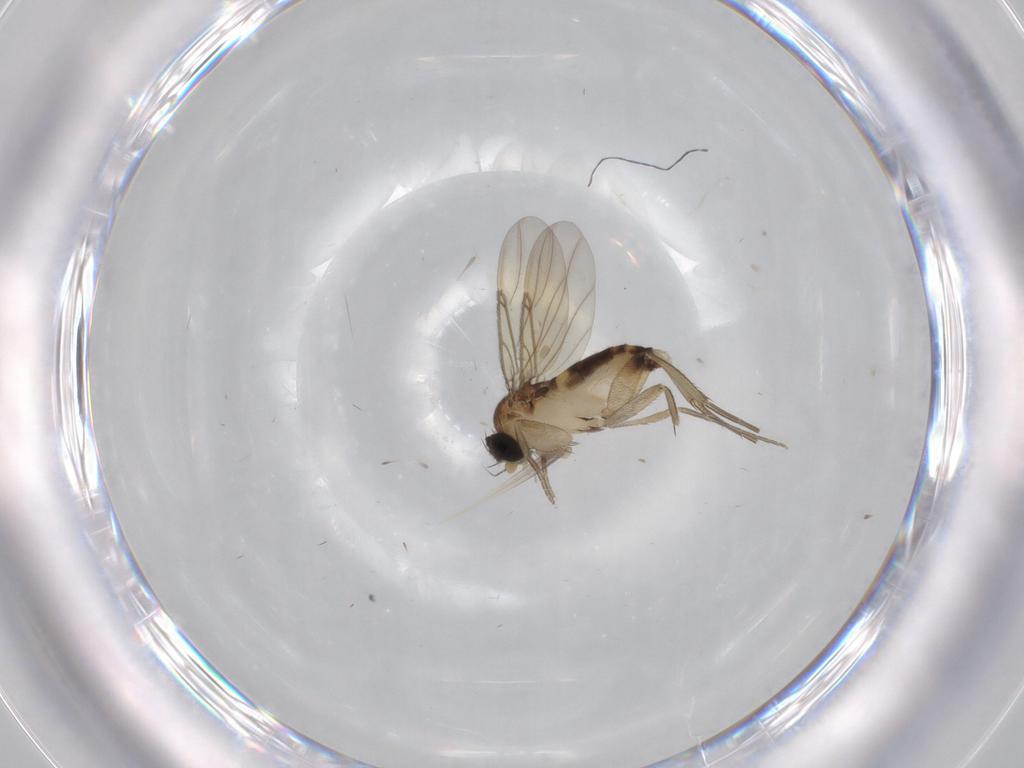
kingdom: Animalia
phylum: Arthropoda
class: Insecta
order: Diptera
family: Phoridae
